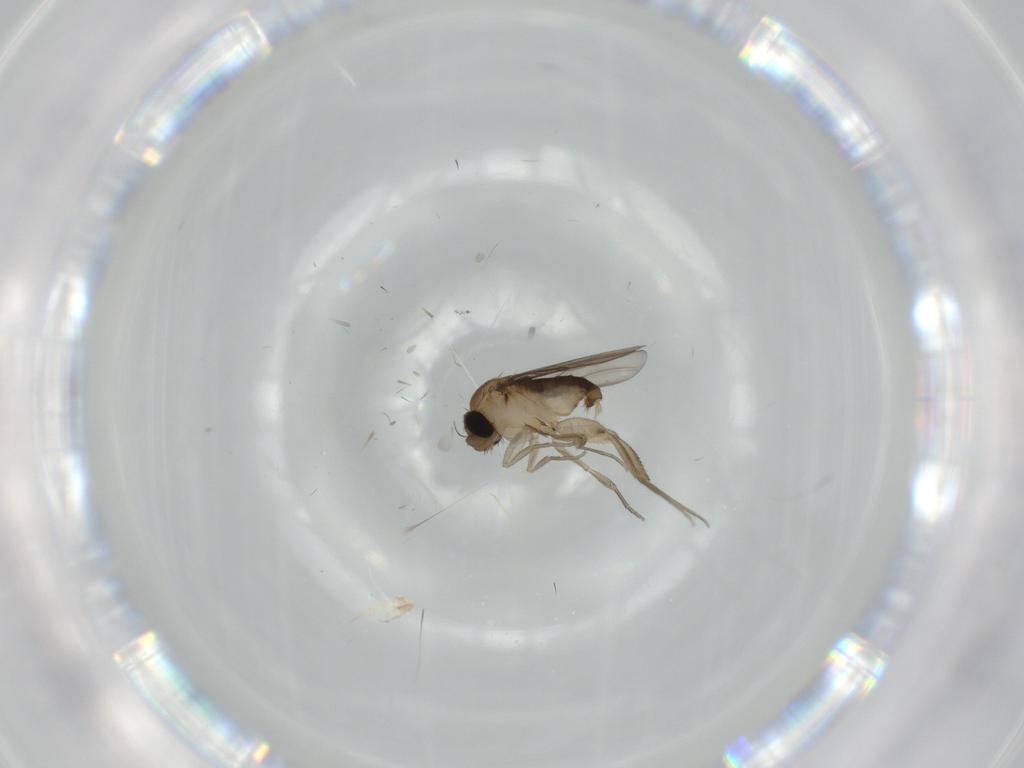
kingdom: Animalia
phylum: Arthropoda
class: Insecta
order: Diptera
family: Phoridae
